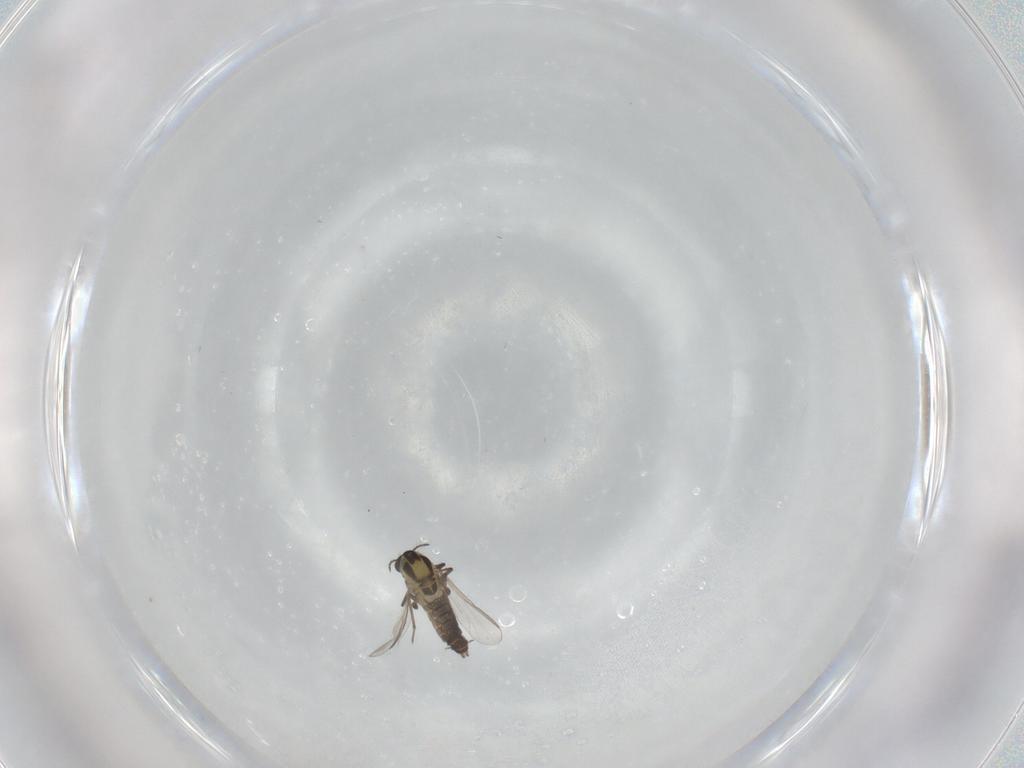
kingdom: Animalia
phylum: Arthropoda
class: Insecta
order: Diptera
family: Chironomidae
